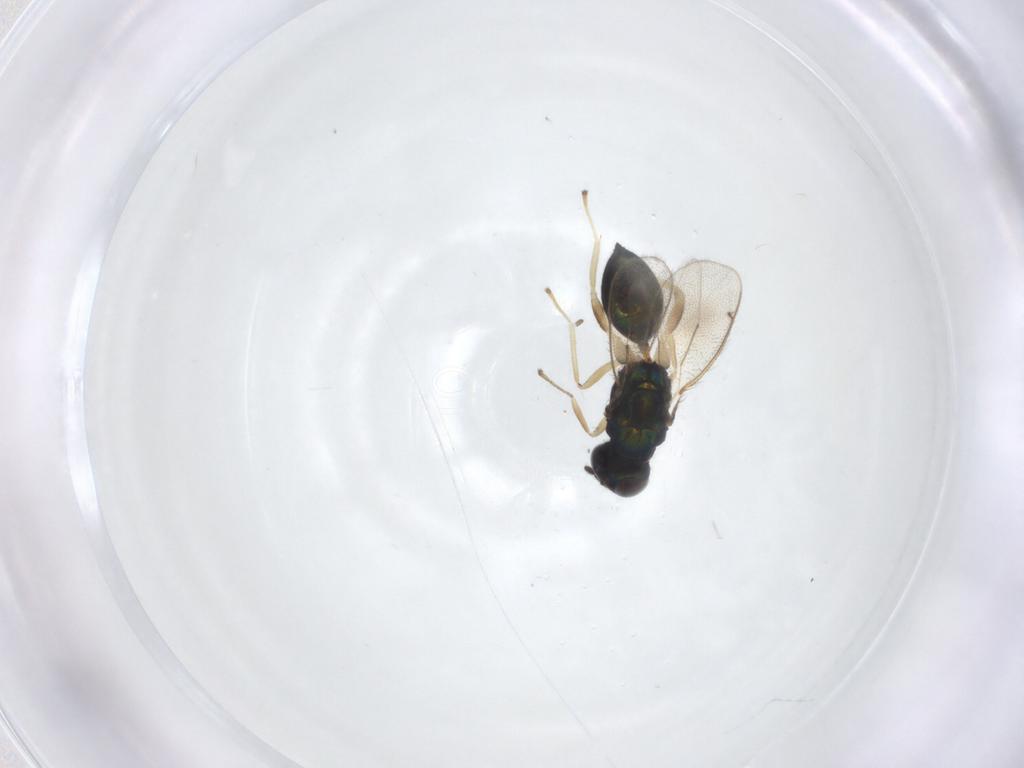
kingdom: Animalia
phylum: Arthropoda
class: Insecta
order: Hymenoptera
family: Eulophidae
